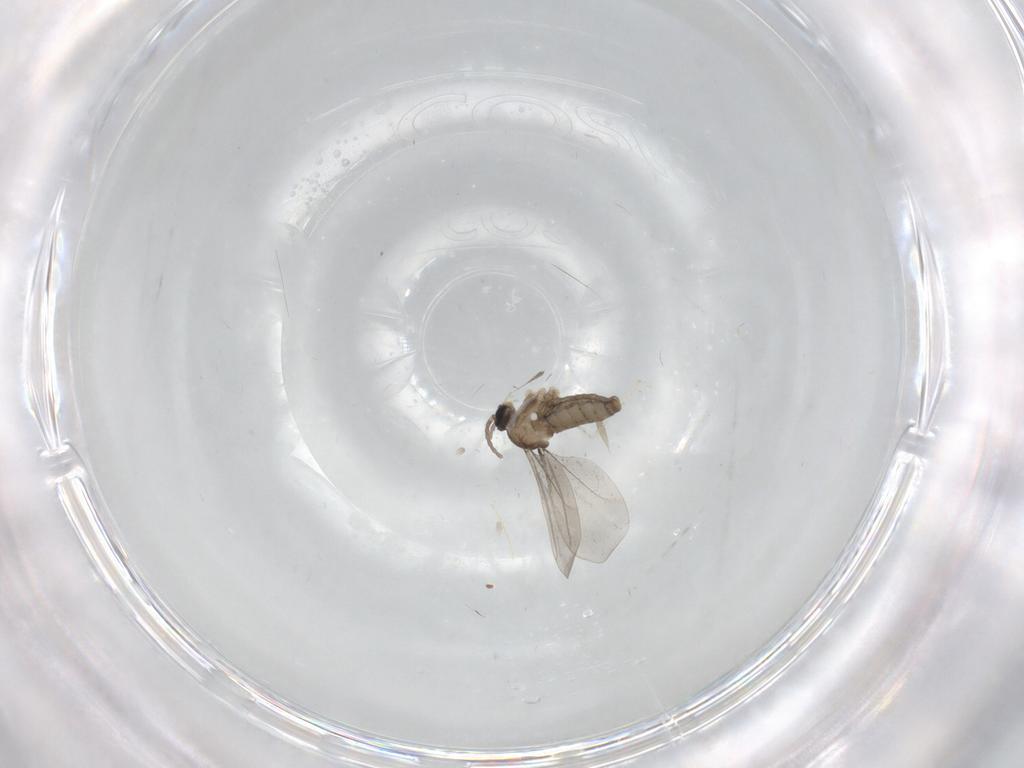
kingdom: Animalia
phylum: Arthropoda
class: Insecta
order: Diptera
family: Cecidomyiidae
